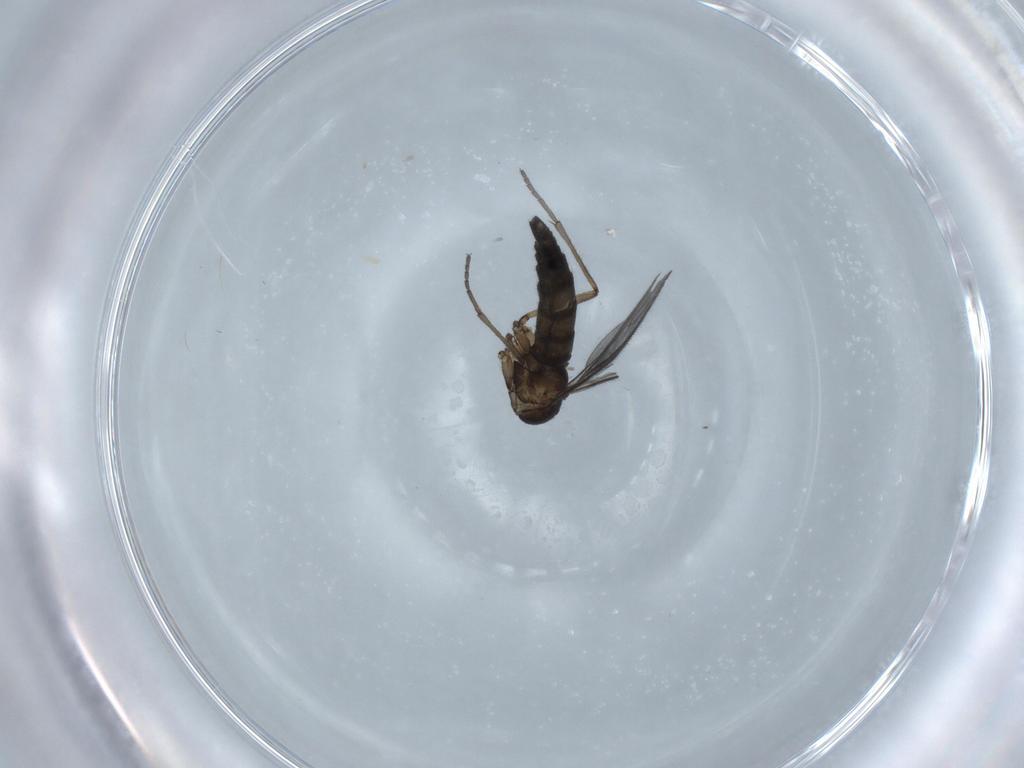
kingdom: Animalia
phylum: Arthropoda
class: Insecta
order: Diptera
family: Sciaridae
